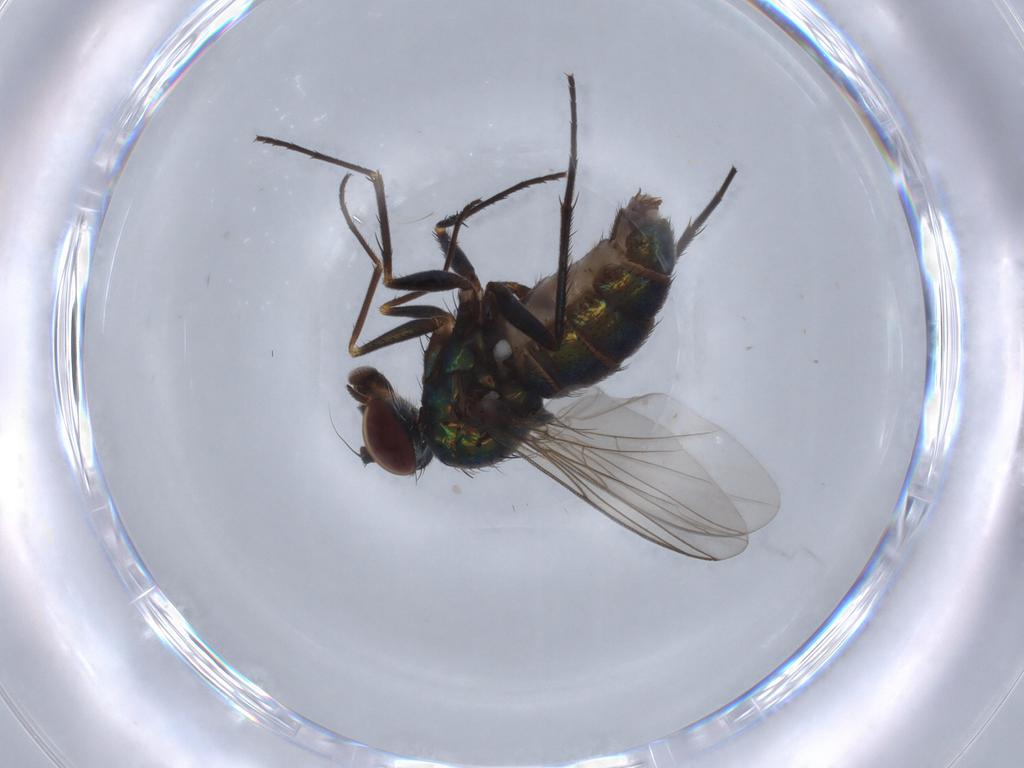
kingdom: Animalia
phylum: Arthropoda
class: Insecta
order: Diptera
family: Dolichopodidae
